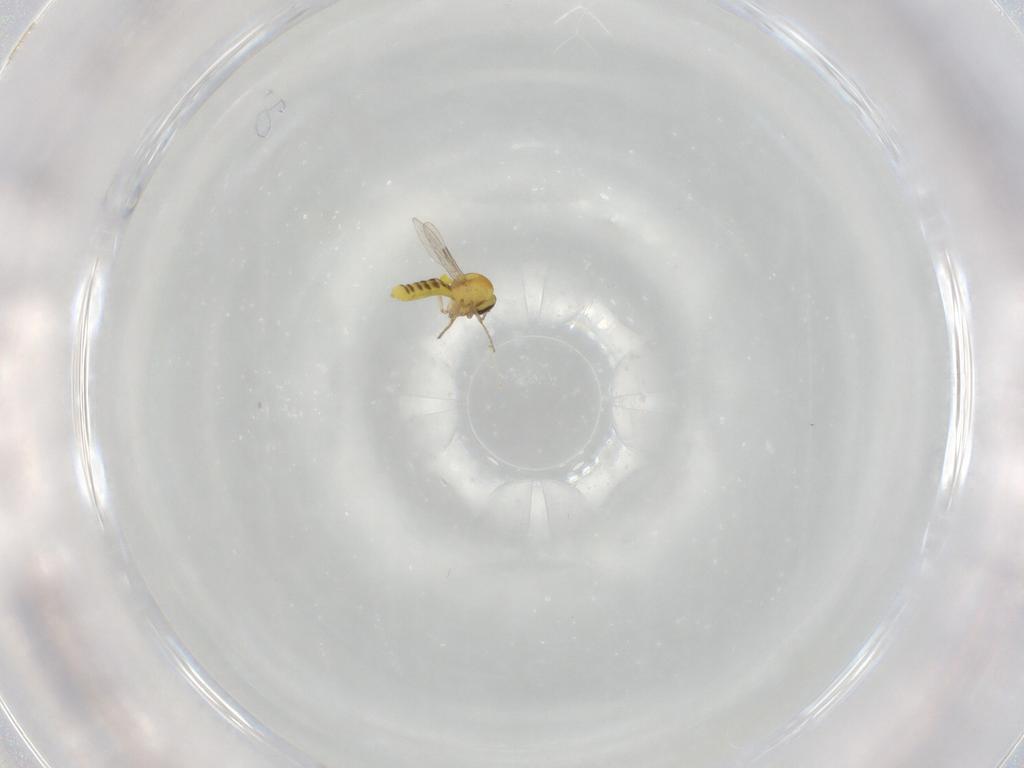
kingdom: Animalia
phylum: Arthropoda
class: Insecta
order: Diptera
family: Ceratopogonidae
